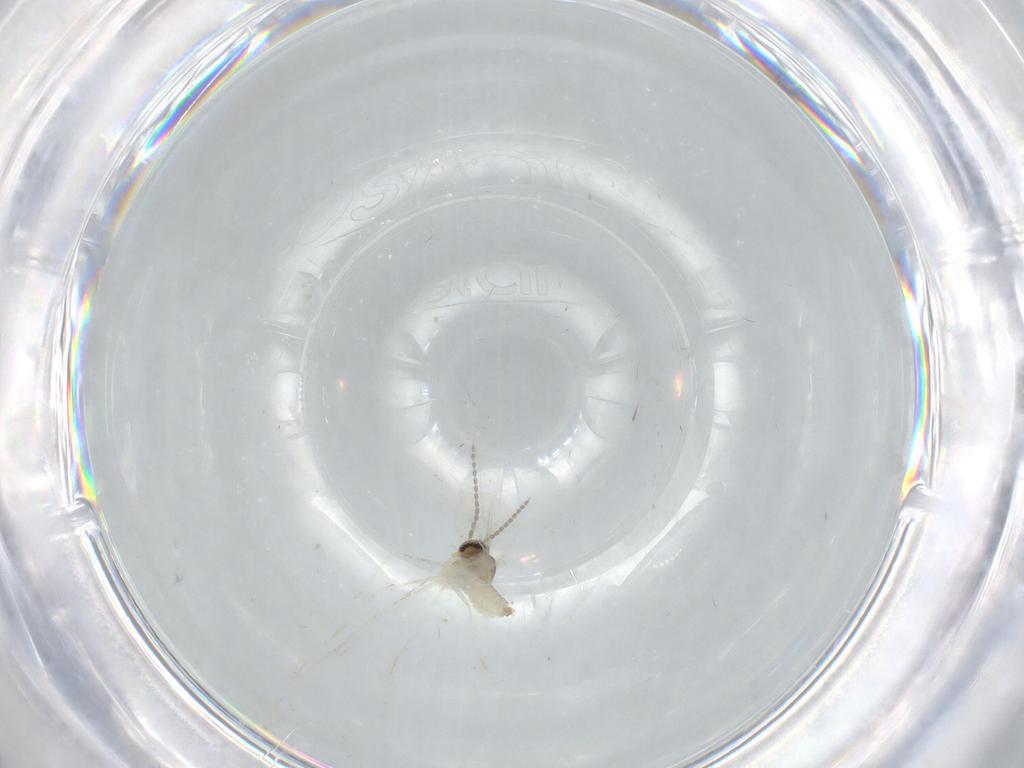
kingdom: Animalia
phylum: Arthropoda
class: Insecta
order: Diptera
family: Cecidomyiidae
